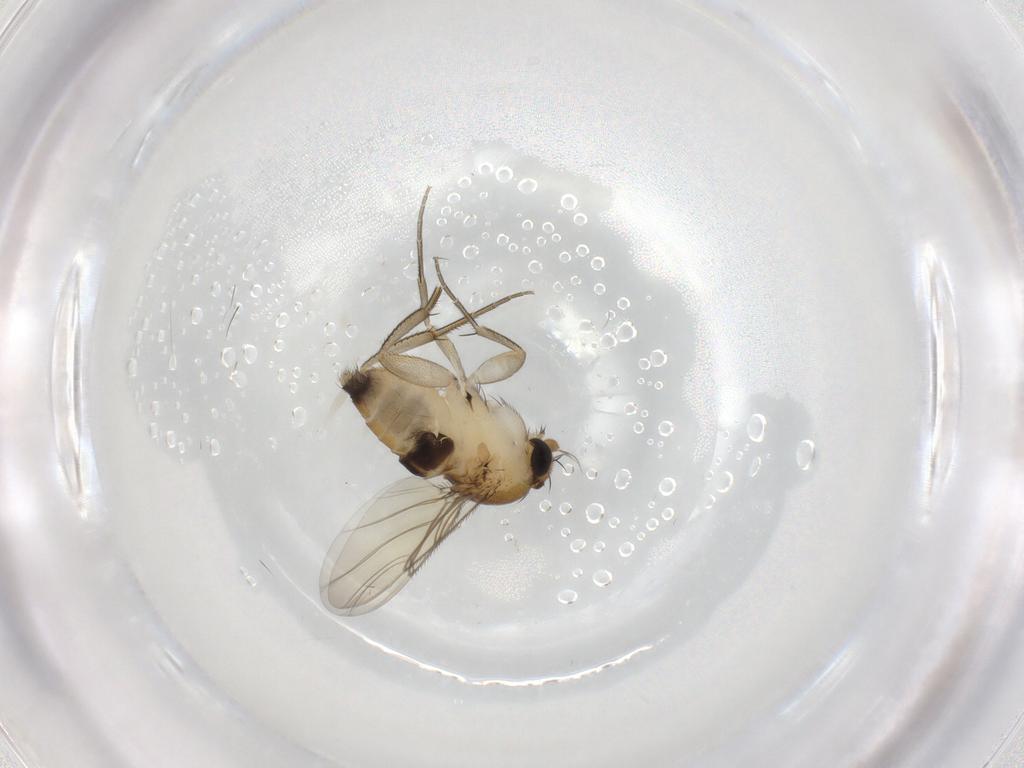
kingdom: Animalia
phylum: Arthropoda
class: Insecta
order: Diptera
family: Phoridae
